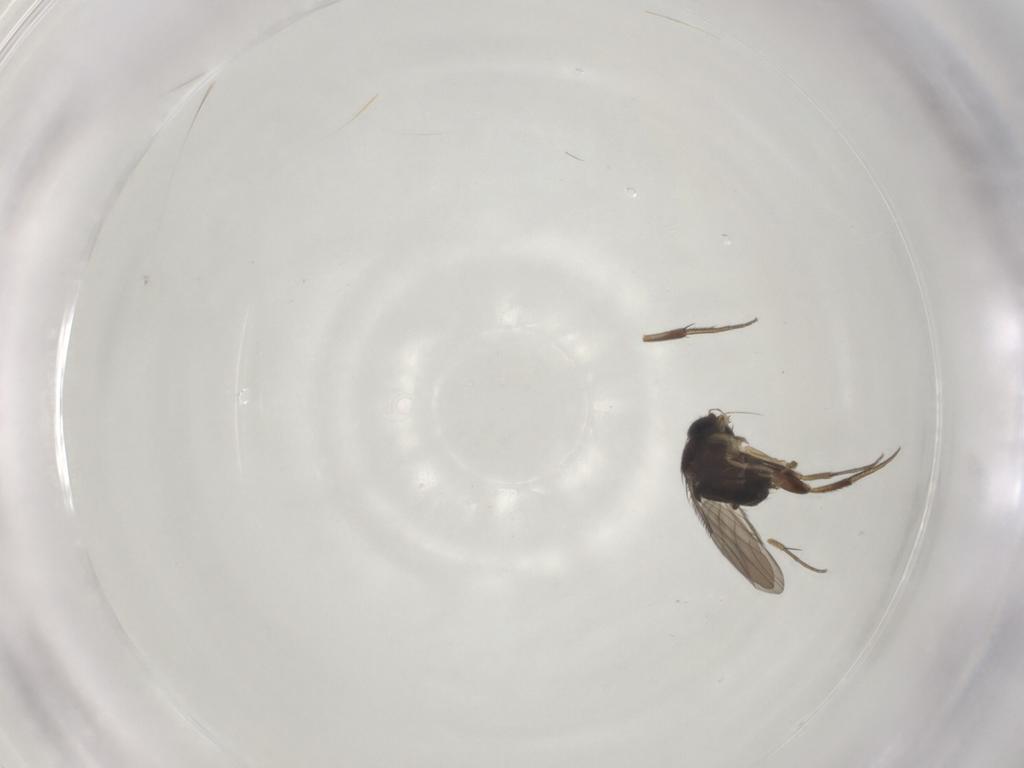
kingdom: Animalia
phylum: Arthropoda
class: Insecta
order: Diptera
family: Phoridae
